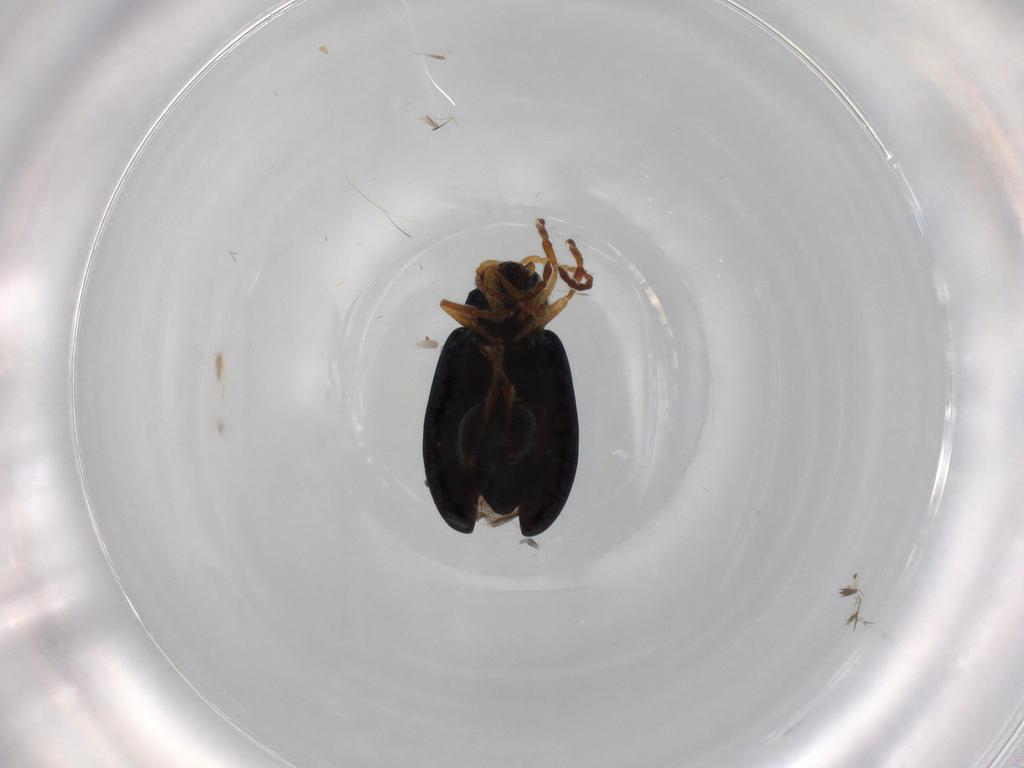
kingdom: Animalia
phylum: Arthropoda
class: Insecta
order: Coleoptera
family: Chrysomelidae
